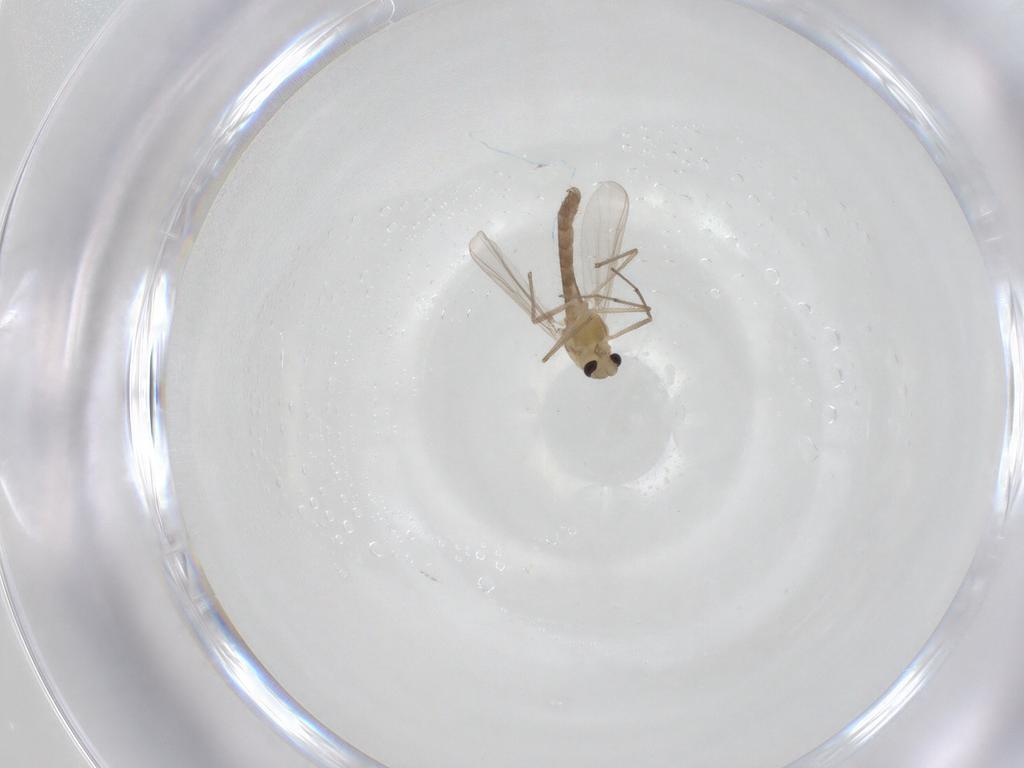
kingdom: Animalia
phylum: Arthropoda
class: Insecta
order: Diptera
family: Chironomidae
